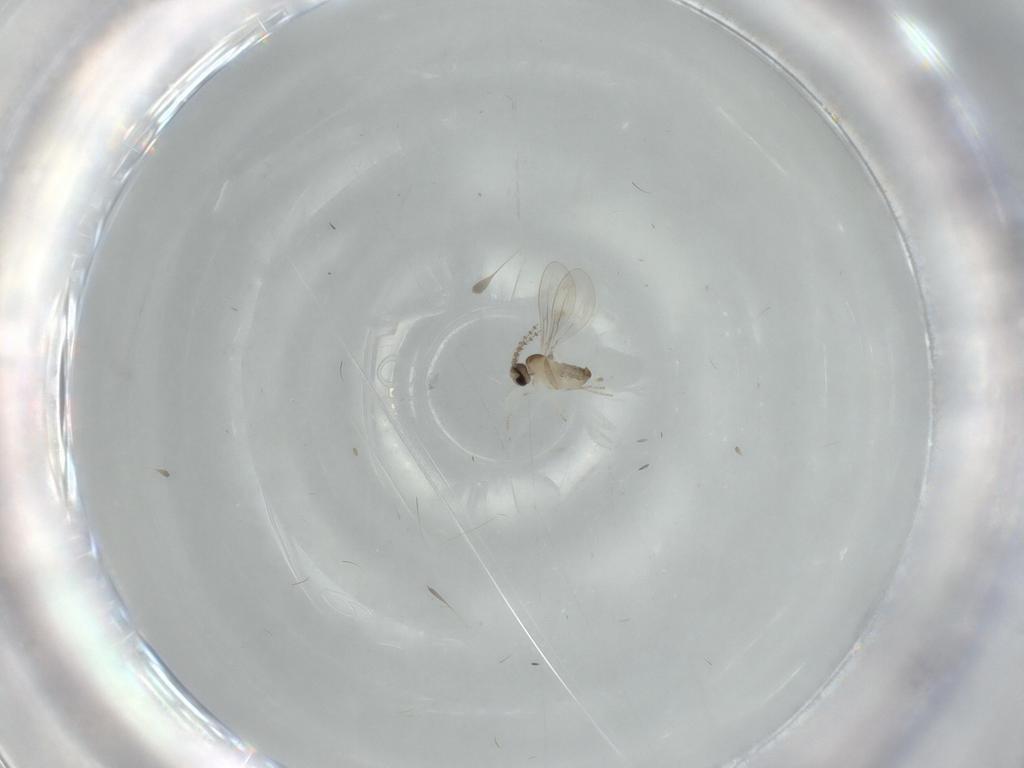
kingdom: Animalia
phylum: Arthropoda
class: Insecta
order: Diptera
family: Cecidomyiidae
